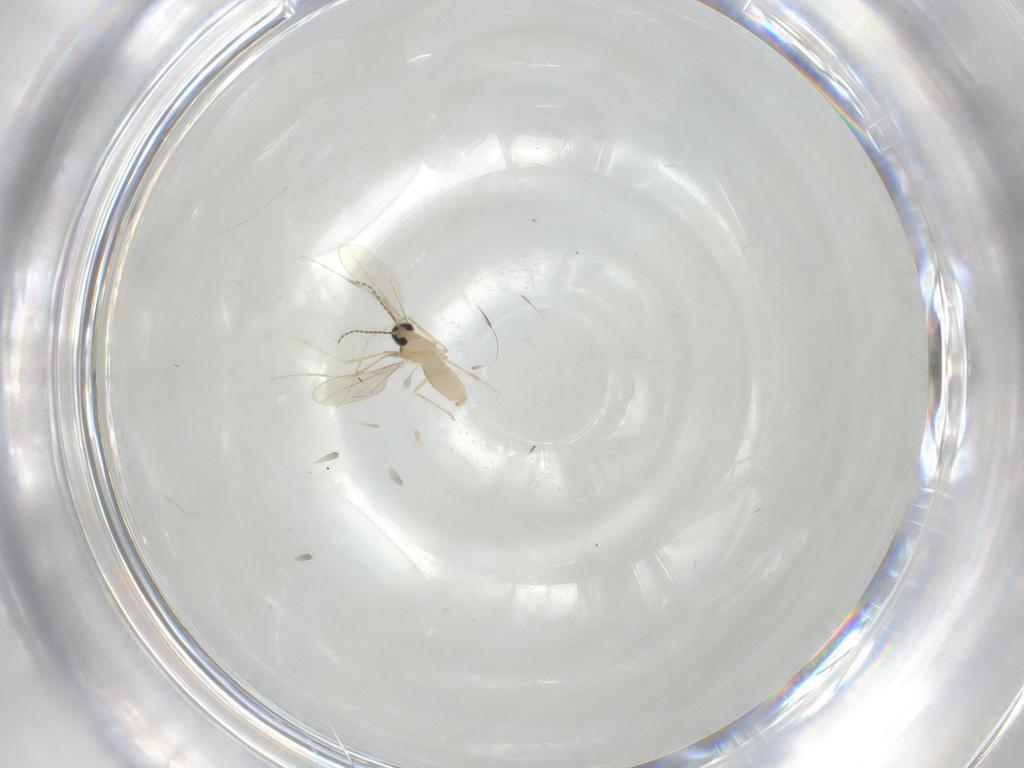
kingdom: Animalia
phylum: Arthropoda
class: Insecta
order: Diptera
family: Cecidomyiidae
